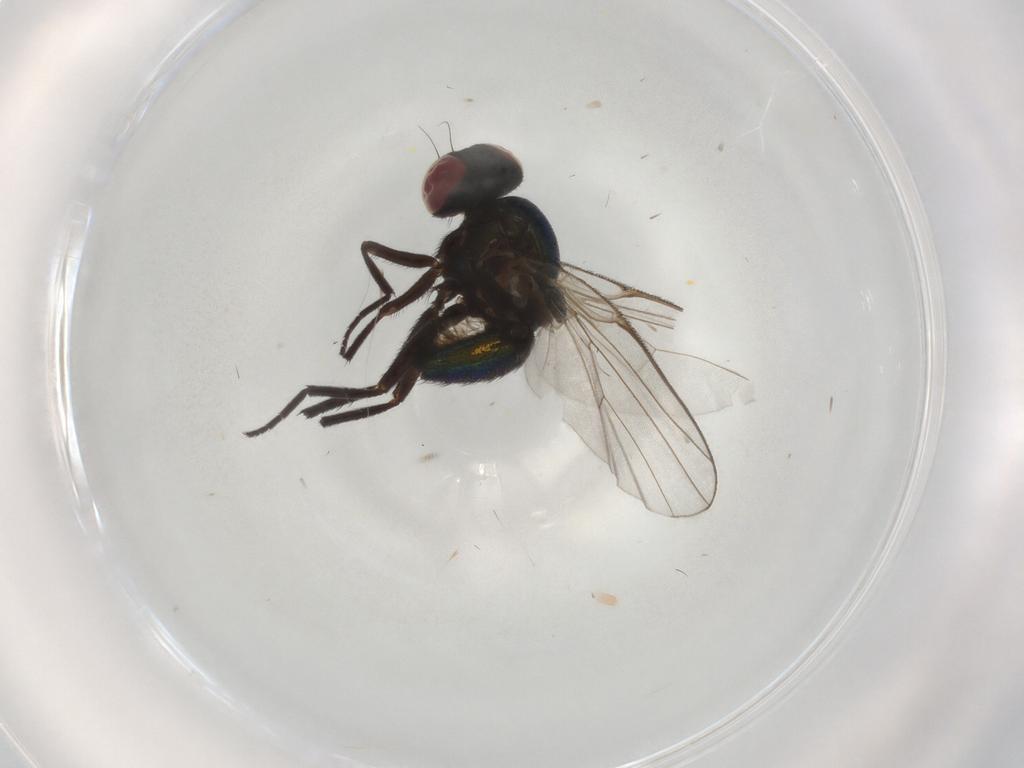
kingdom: Animalia
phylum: Arthropoda
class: Insecta
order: Diptera
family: Agromyzidae
